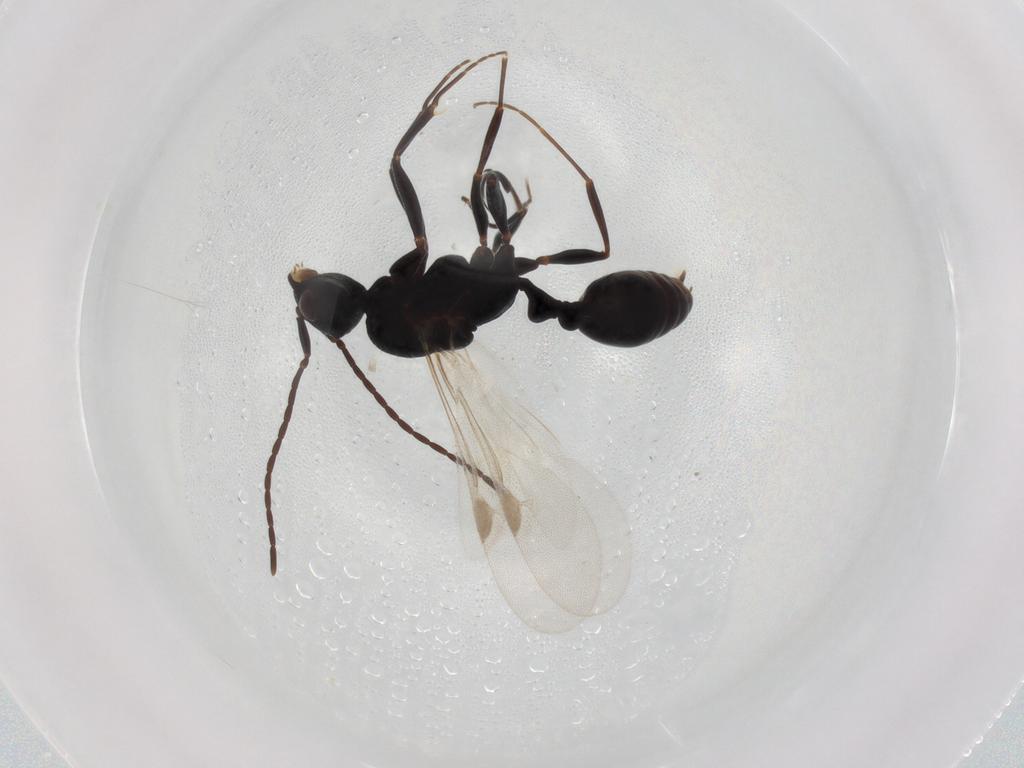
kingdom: Animalia
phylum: Arthropoda
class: Insecta
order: Hymenoptera
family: Formicidae
